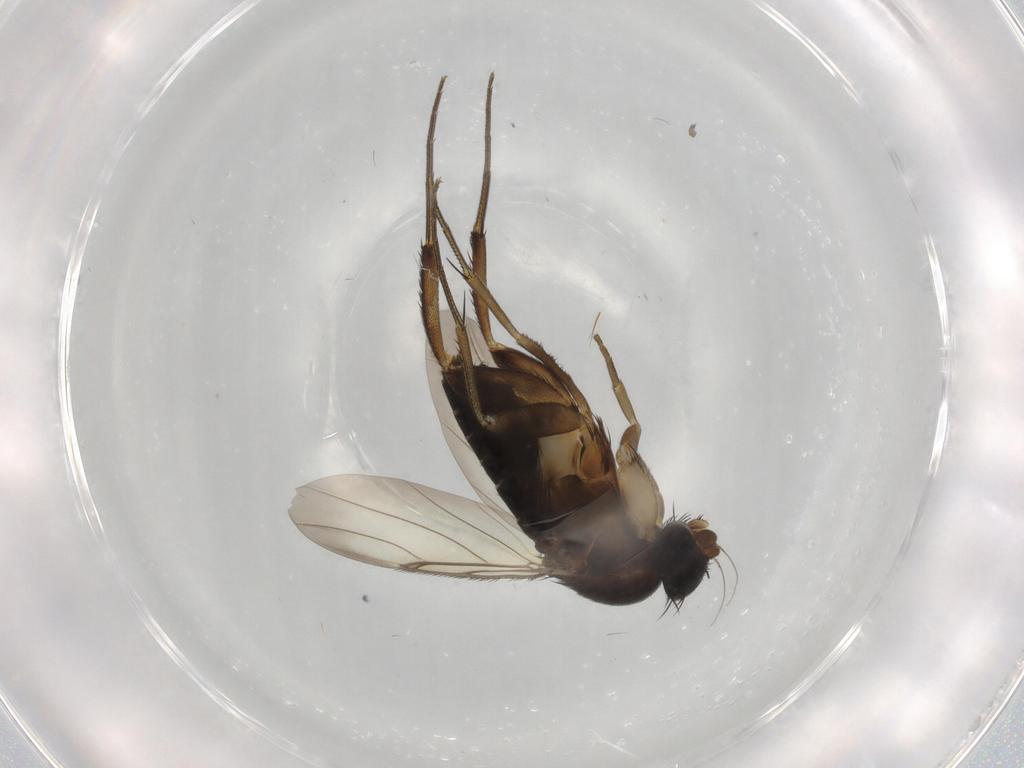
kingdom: Animalia
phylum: Arthropoda
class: Insecta
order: Diptera
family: Phoridae
